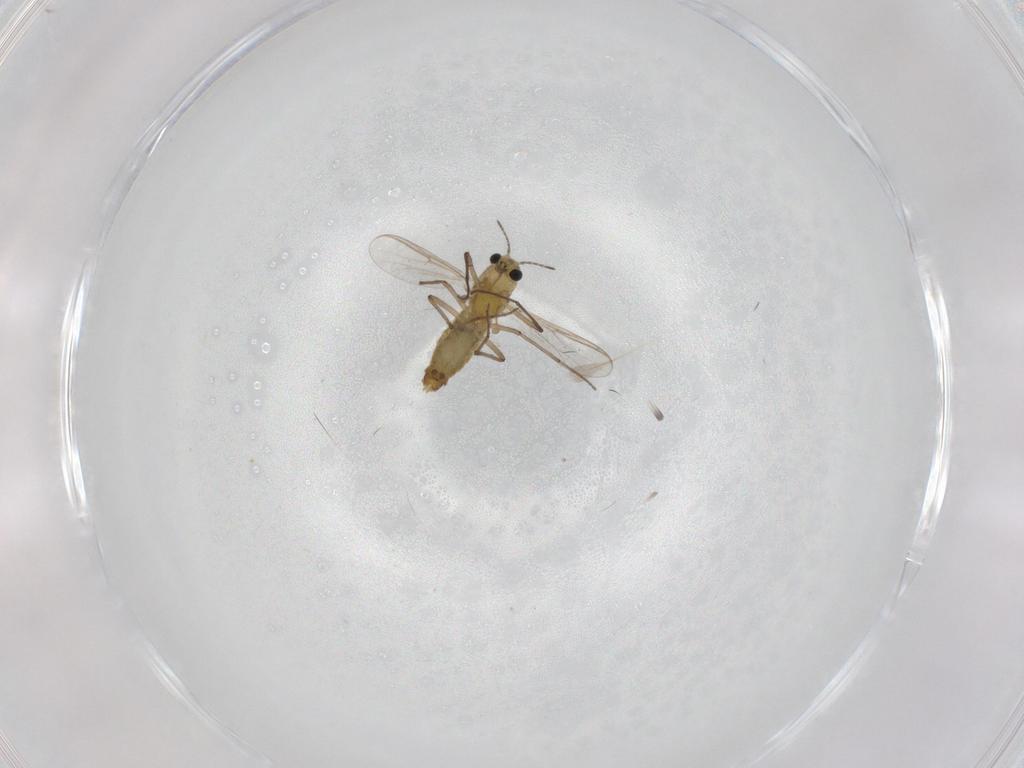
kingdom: Animalia
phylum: Arthropoda
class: Insecta
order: Diptera
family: Chironomidae
